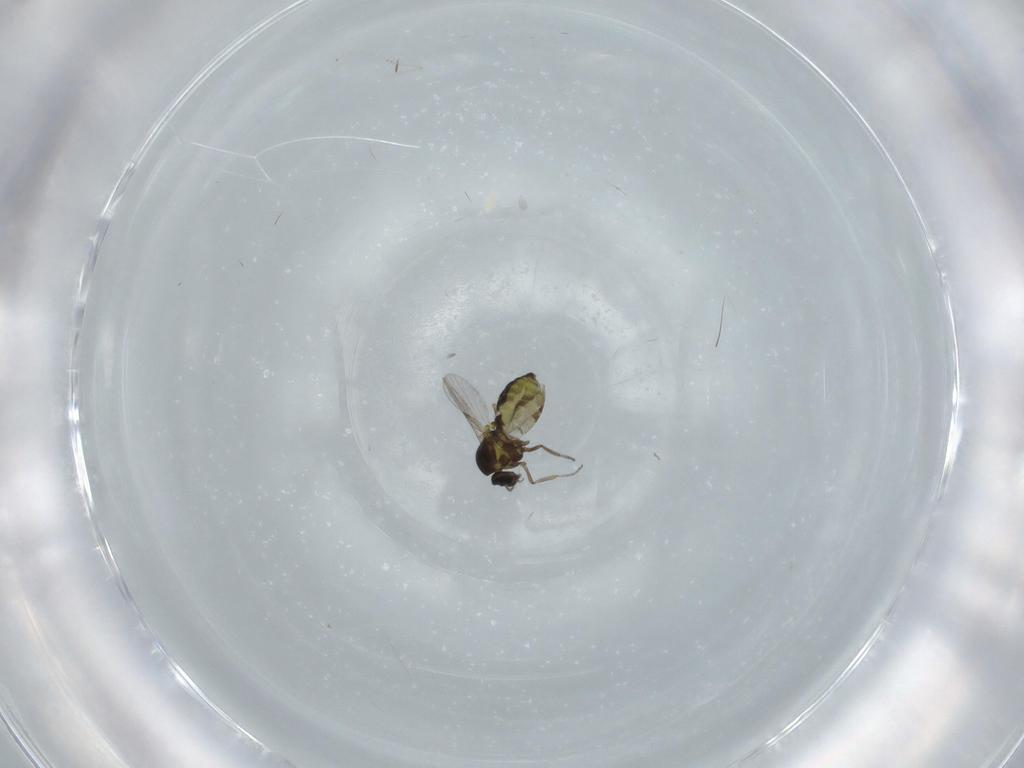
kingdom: Animalia
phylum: Arthropoda
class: Insecta
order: Diptera
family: Cecidomyiidae
